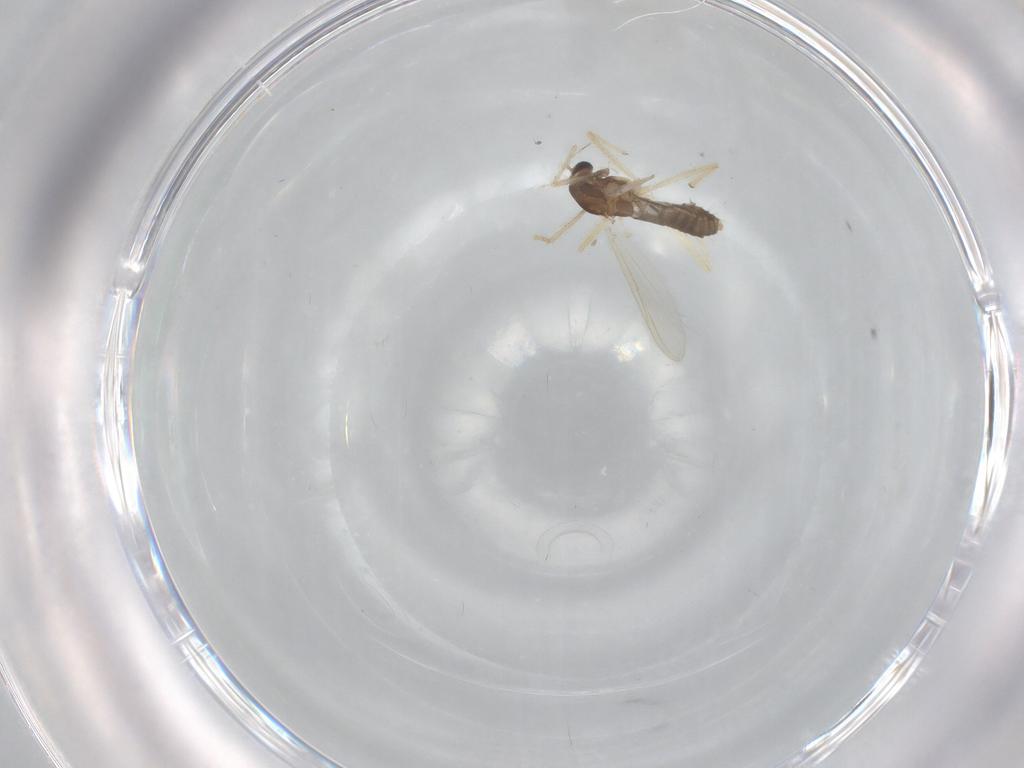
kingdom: Animalia
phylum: Arthropoda
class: Insecta
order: Diptera
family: Chironomidae
